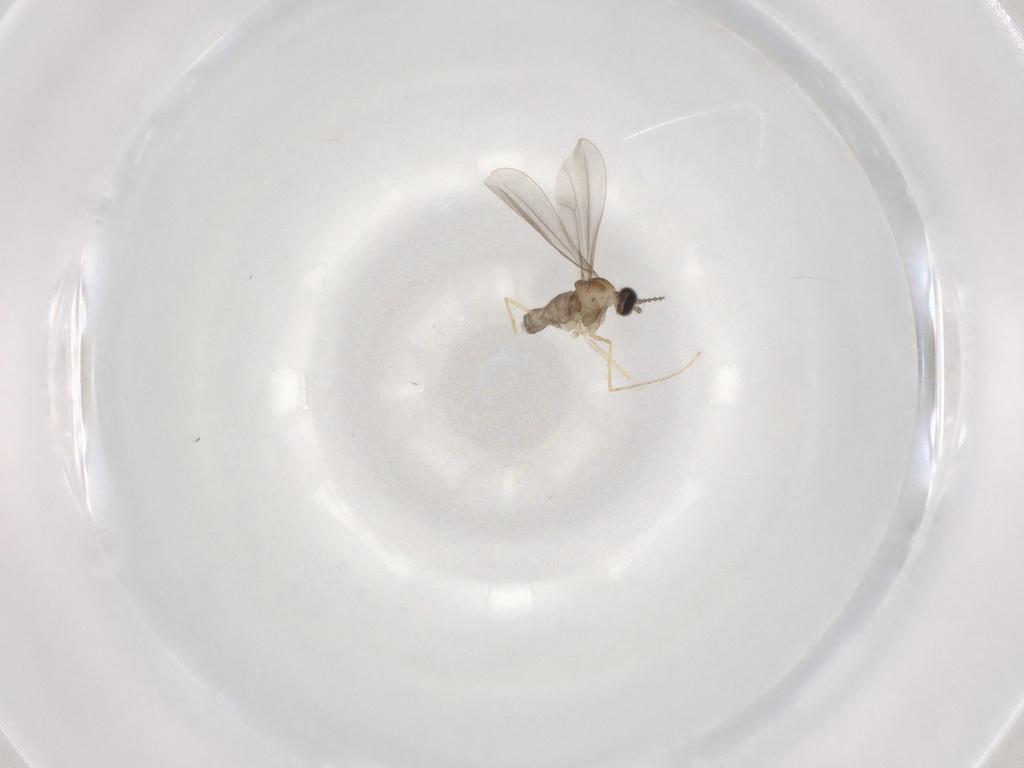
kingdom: Animalia
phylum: Arthropoda
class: Insecta
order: Diptera
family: Cecidomyiidae
